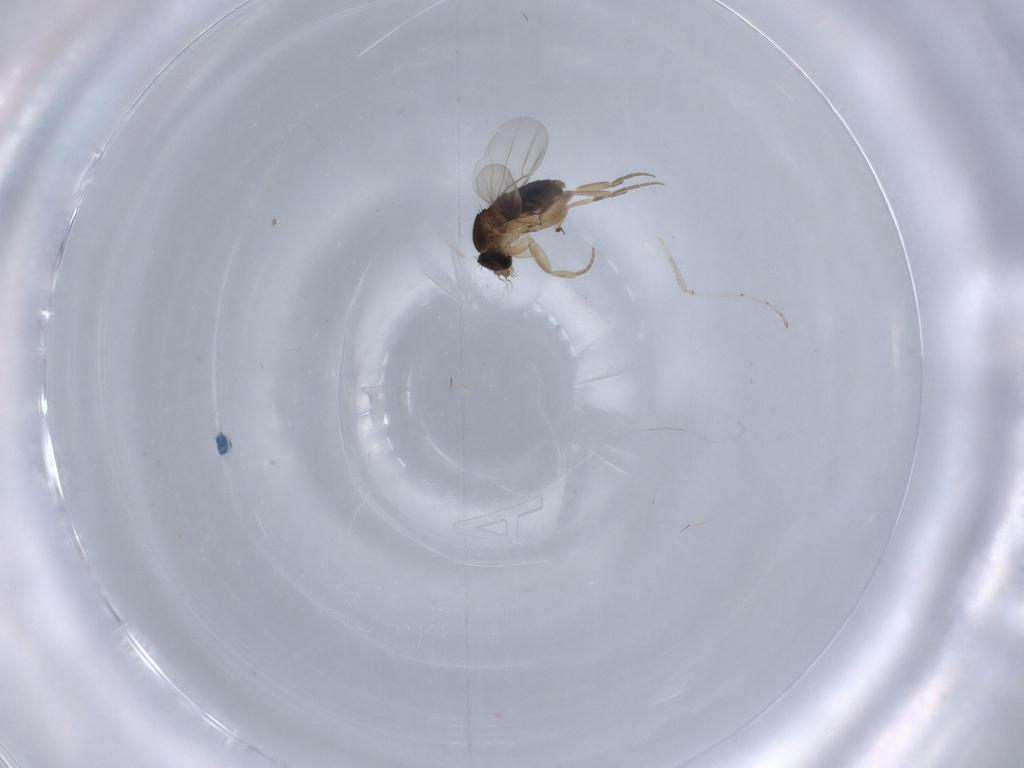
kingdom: Animalia
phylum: Arthropoda
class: Insecta
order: Diptera
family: Phoridae
